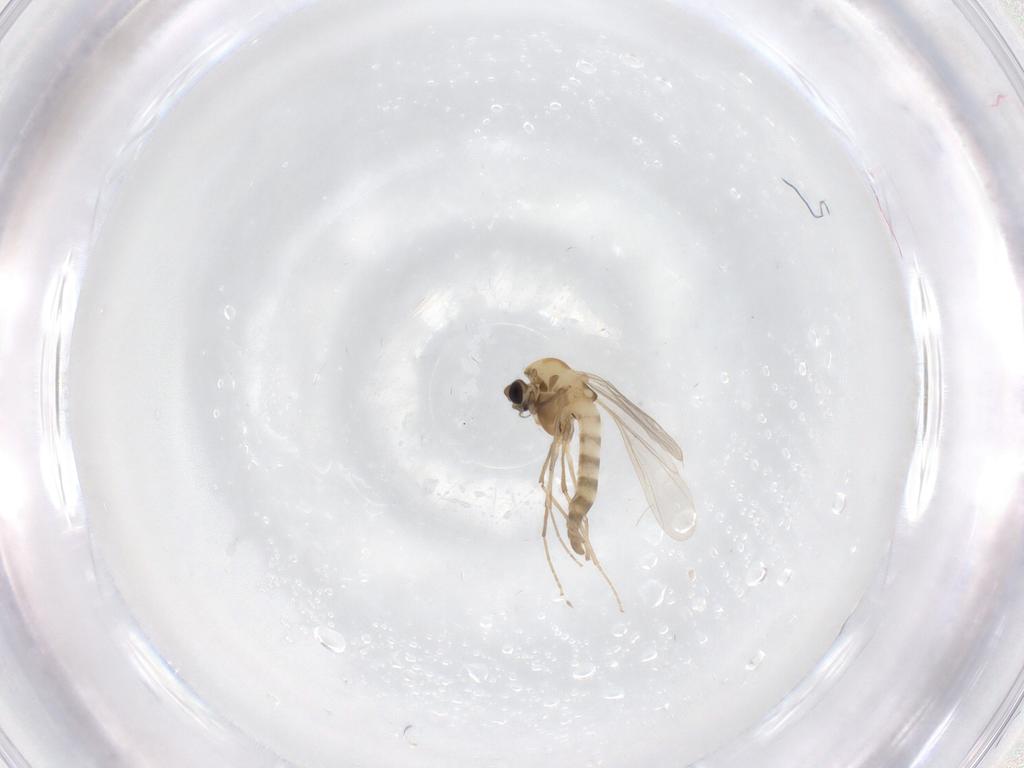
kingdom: Animalia
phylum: Arthropoda
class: Insecta
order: Diptera
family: Chironomidae
